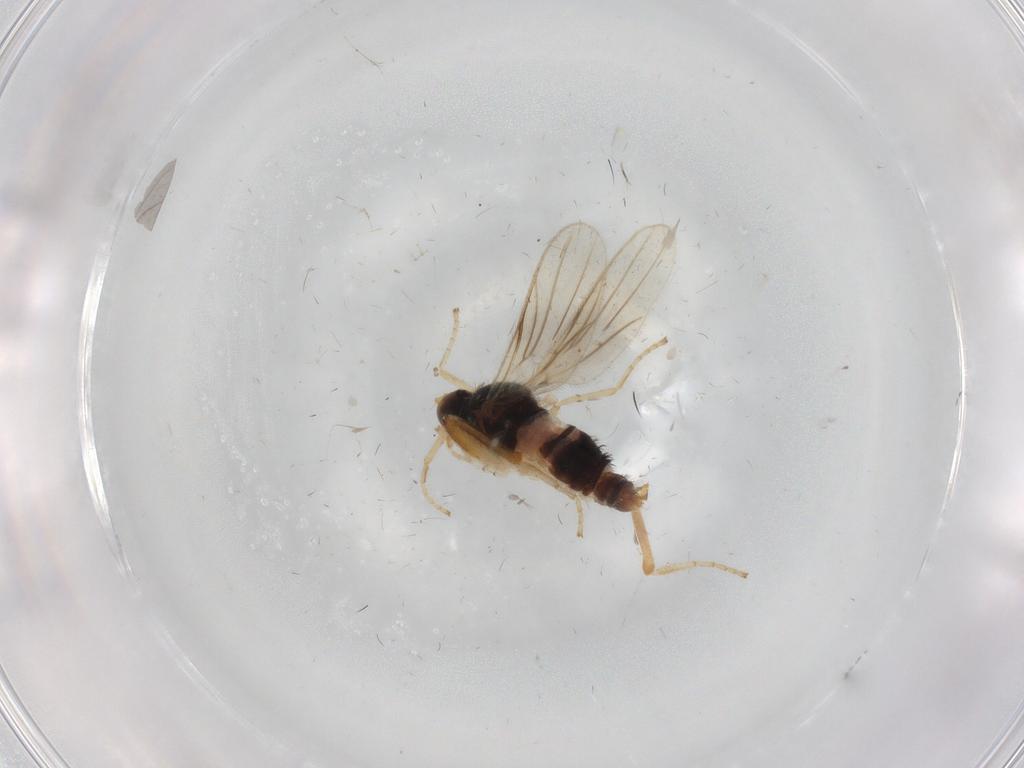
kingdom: Animalia
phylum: Arthropoda
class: Insecta
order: Diptera
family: Hybotidae
